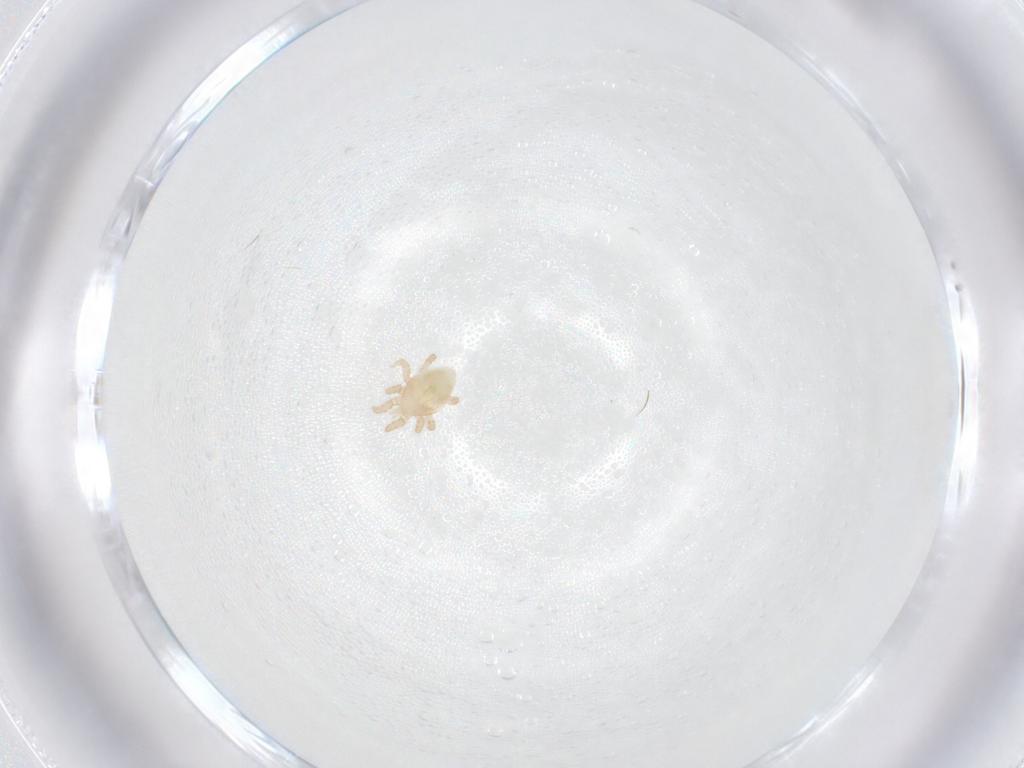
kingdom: Animalia
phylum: Arthropoda
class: Arachnida
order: Mesostigmata
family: Otopheidomenidae
